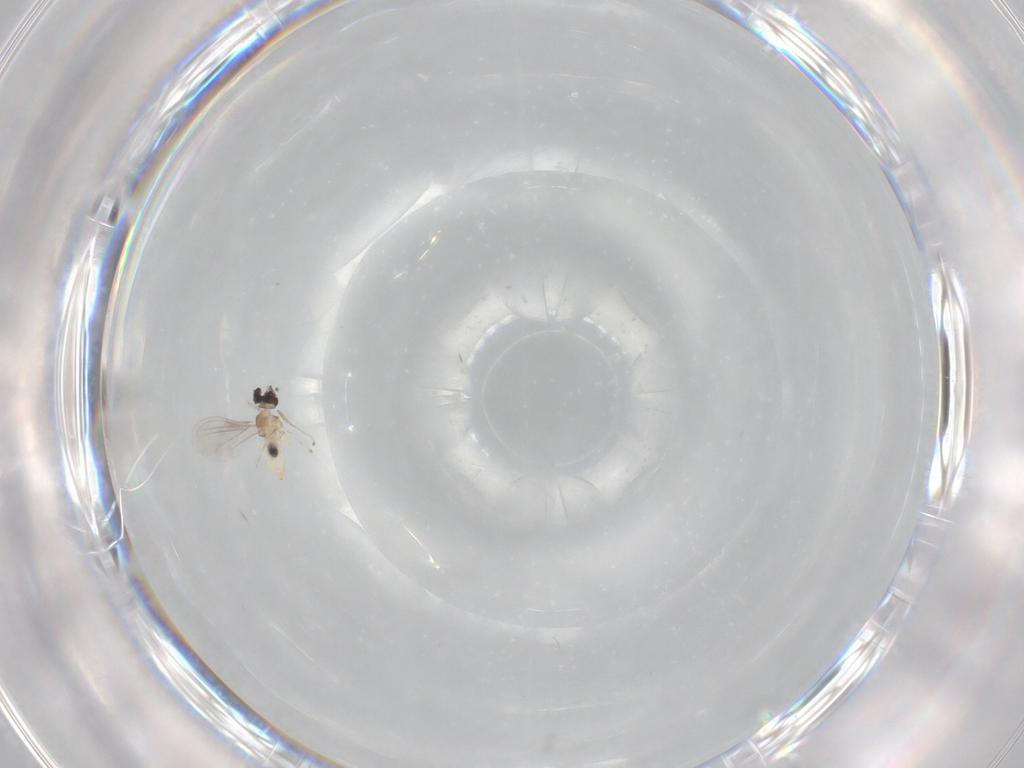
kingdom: Animalia
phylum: Arthropoda
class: Insecta
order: Diptera
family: Cecidomyiidae
